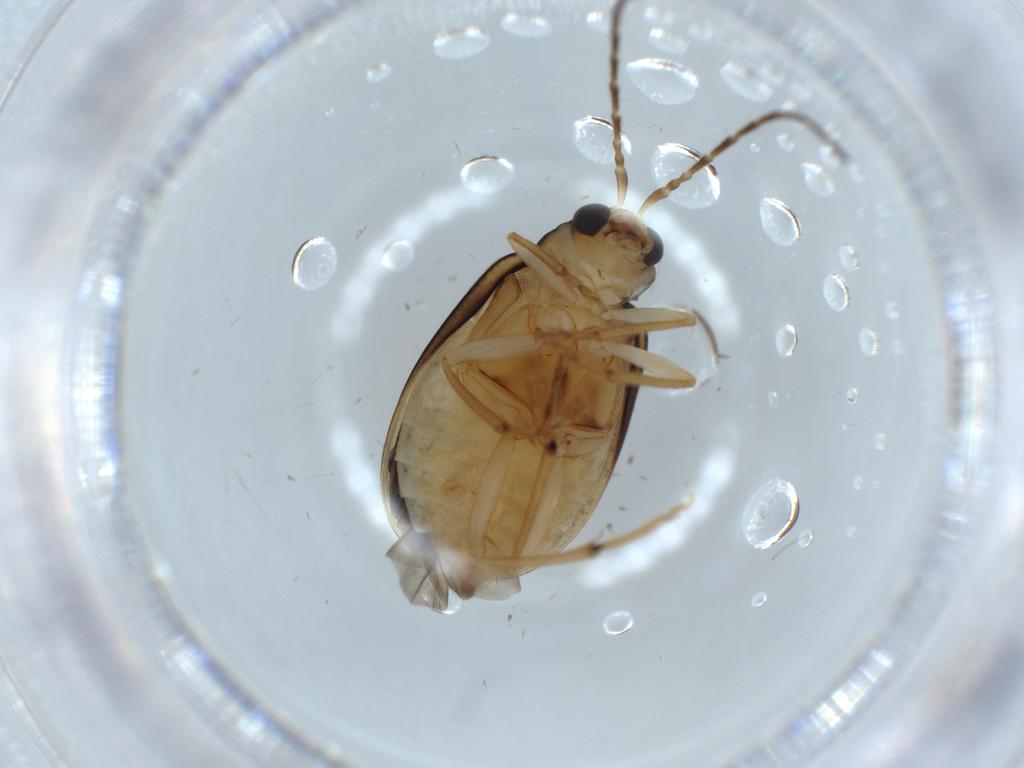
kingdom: Animalia
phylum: Arthropoda
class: Insecta
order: Coleoptera
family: Chrysomelidae
